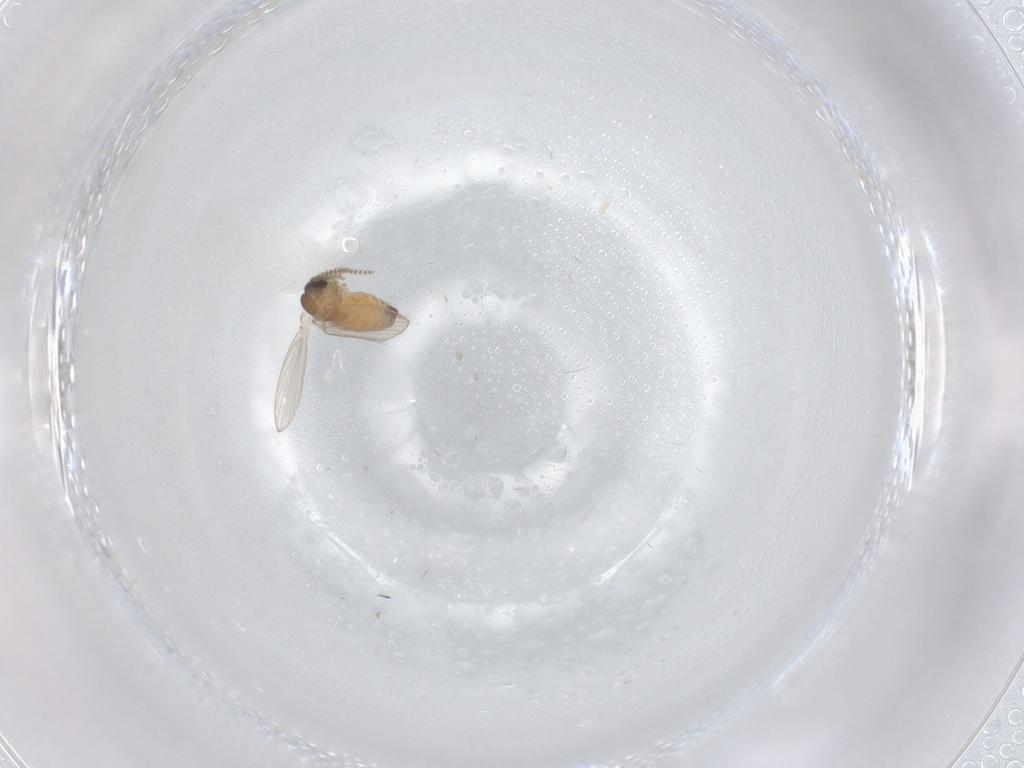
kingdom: Animalia
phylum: Arthropoda
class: Insecta
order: Diptera
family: Psychodidae
